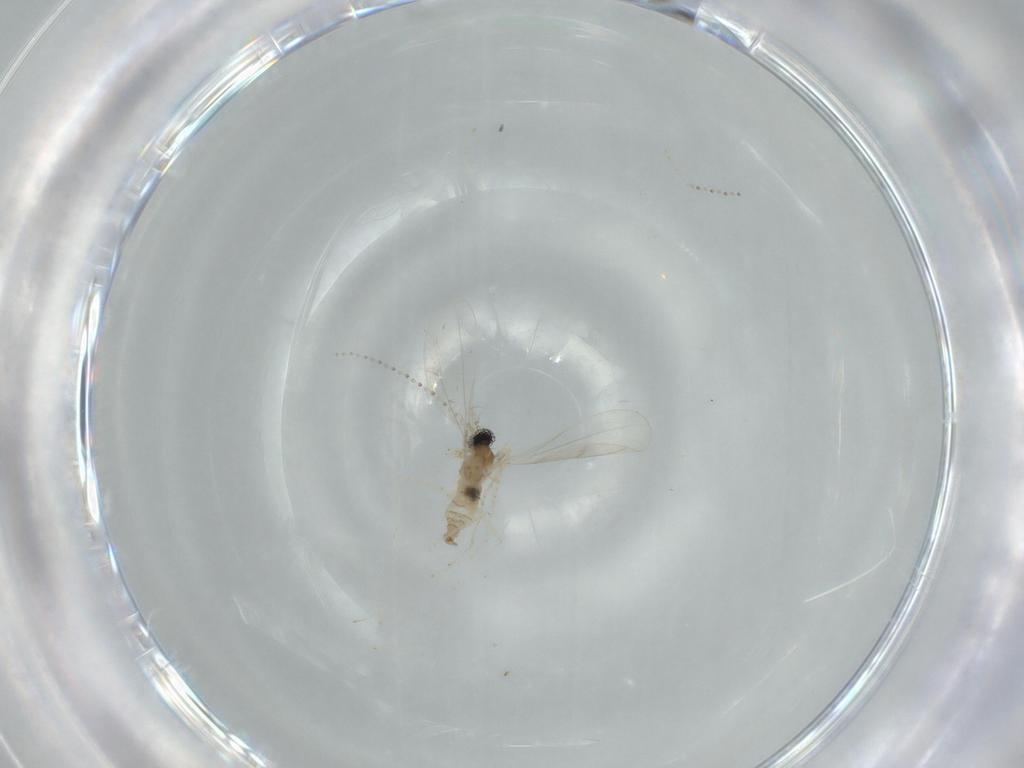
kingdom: Animalia
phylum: Arthropoda
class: Insecta
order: Diptera
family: Cecidomyiidae
